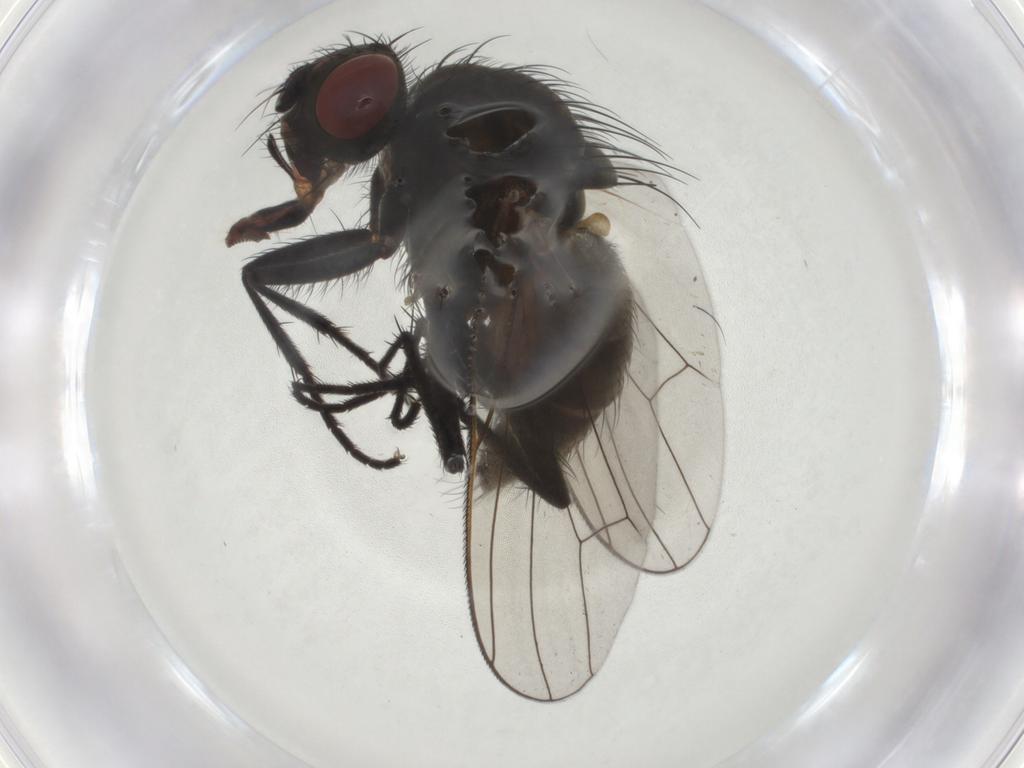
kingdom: Animalia
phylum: Arthropoda
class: Insecta
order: Diptera
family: Anthomyiidae
